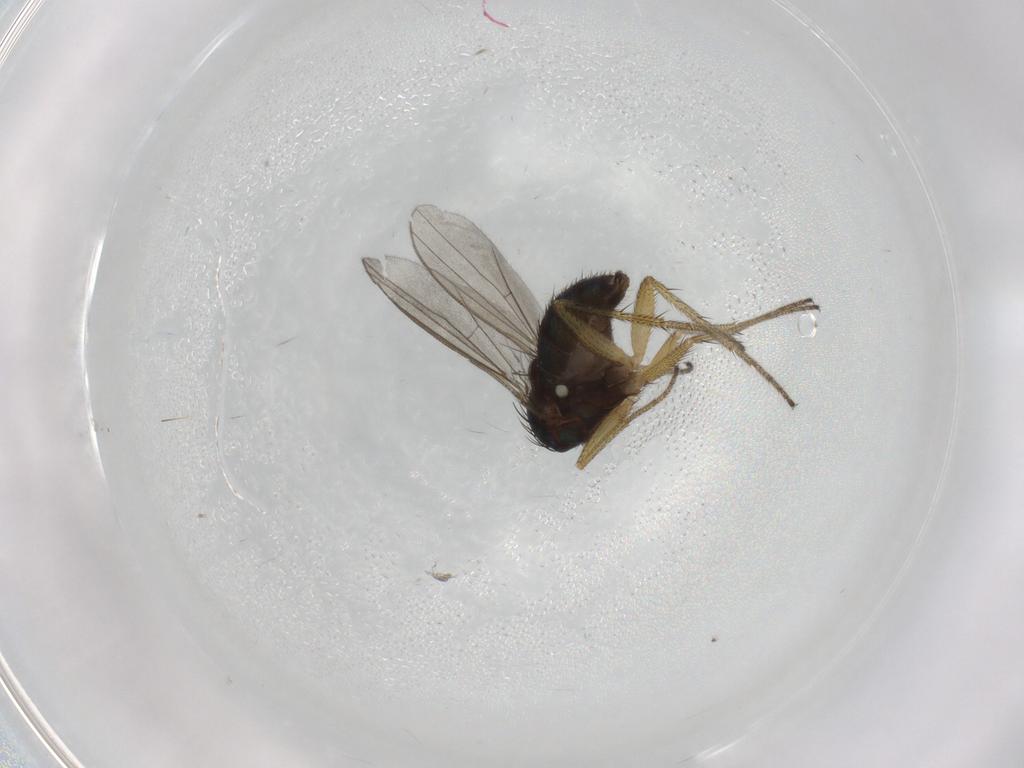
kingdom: Animalia
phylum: Arthropoda
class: Insecta
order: Diptera
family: Dolichopodidae
